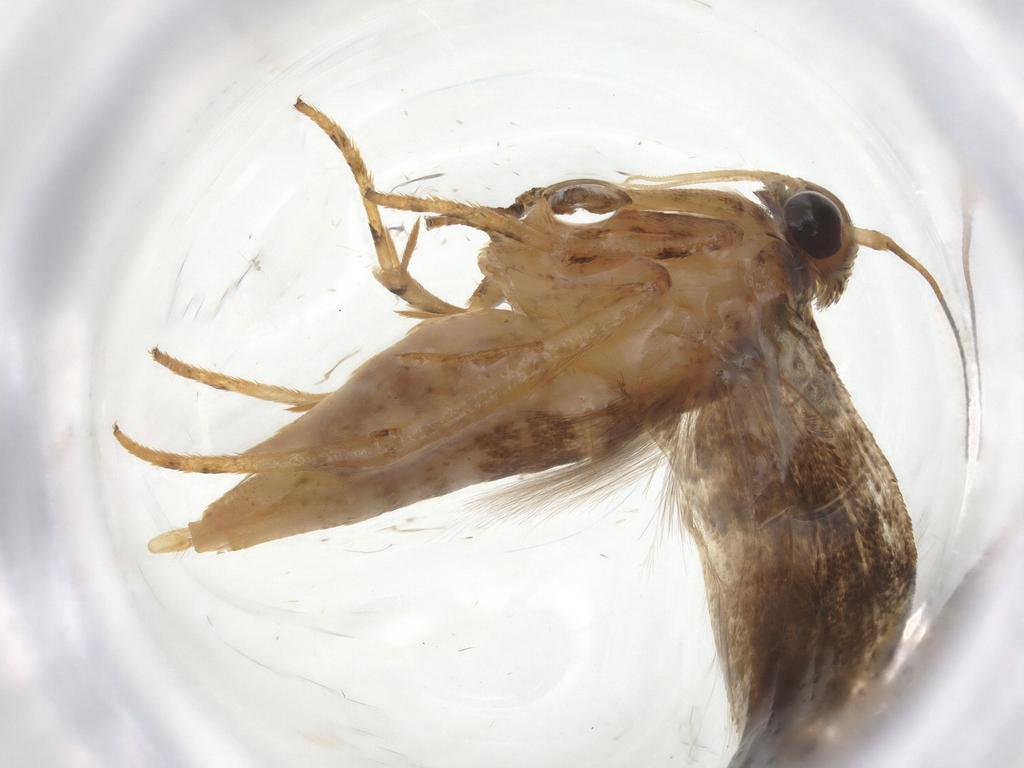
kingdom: Animalia
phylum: Arthropoda
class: Insecta
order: Lepidoptera
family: Gelechiidae
